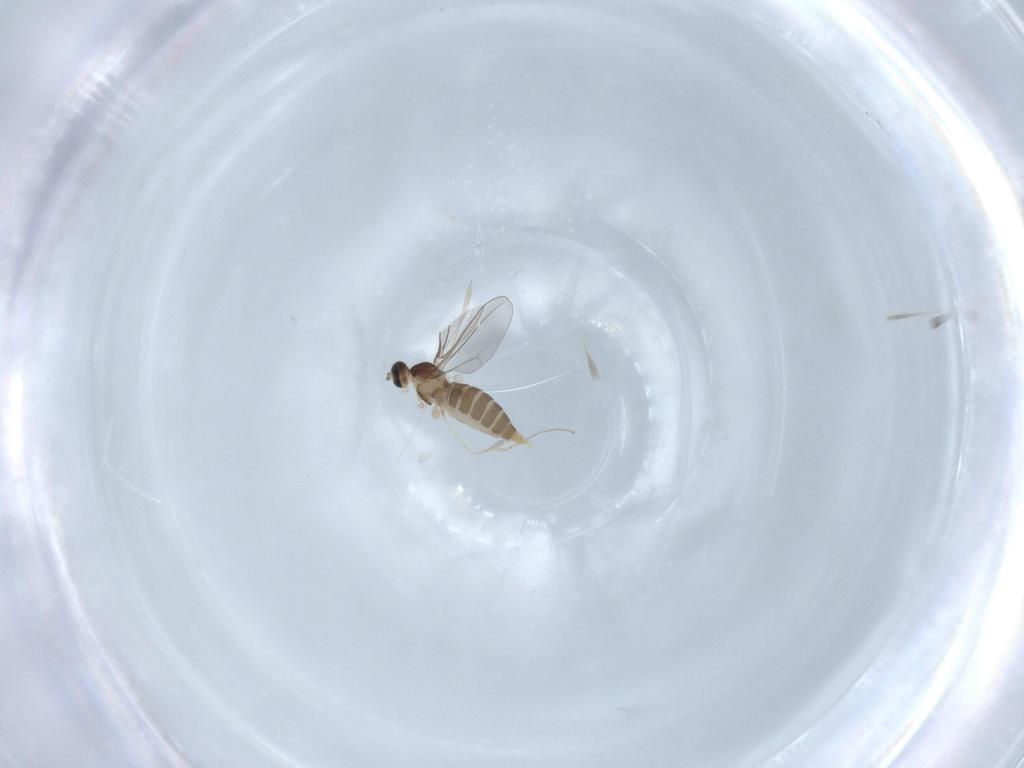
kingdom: Animalia
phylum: Arthropoda
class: Insecta
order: Diptera
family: Cecidomyiidae
